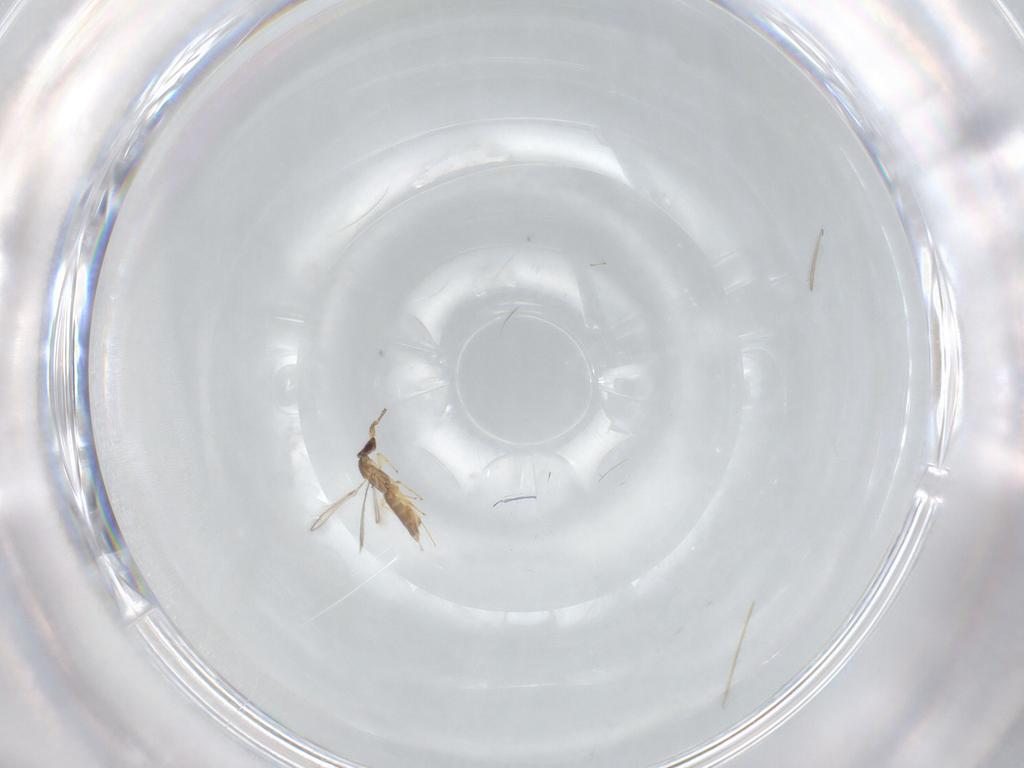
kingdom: Animalia
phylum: Arthropoda
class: Insecta
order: Hymenoptera
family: Mymaridae
